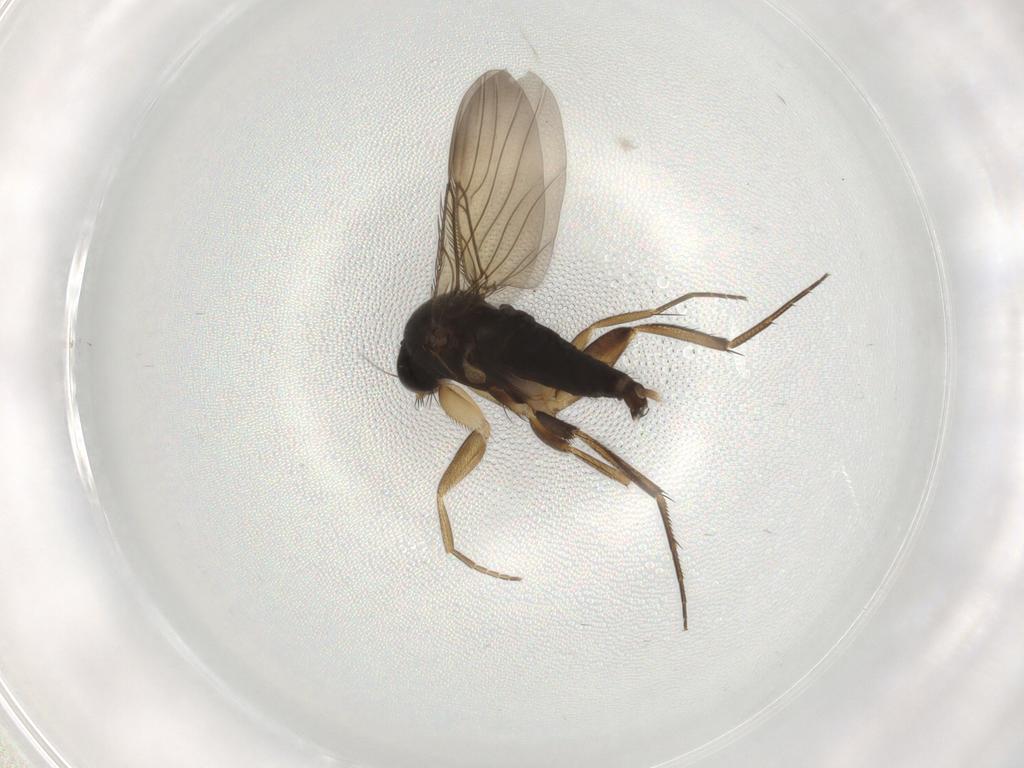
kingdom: Animalia
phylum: Arthropoda
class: Insecta
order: Diptera
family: Phoridae
